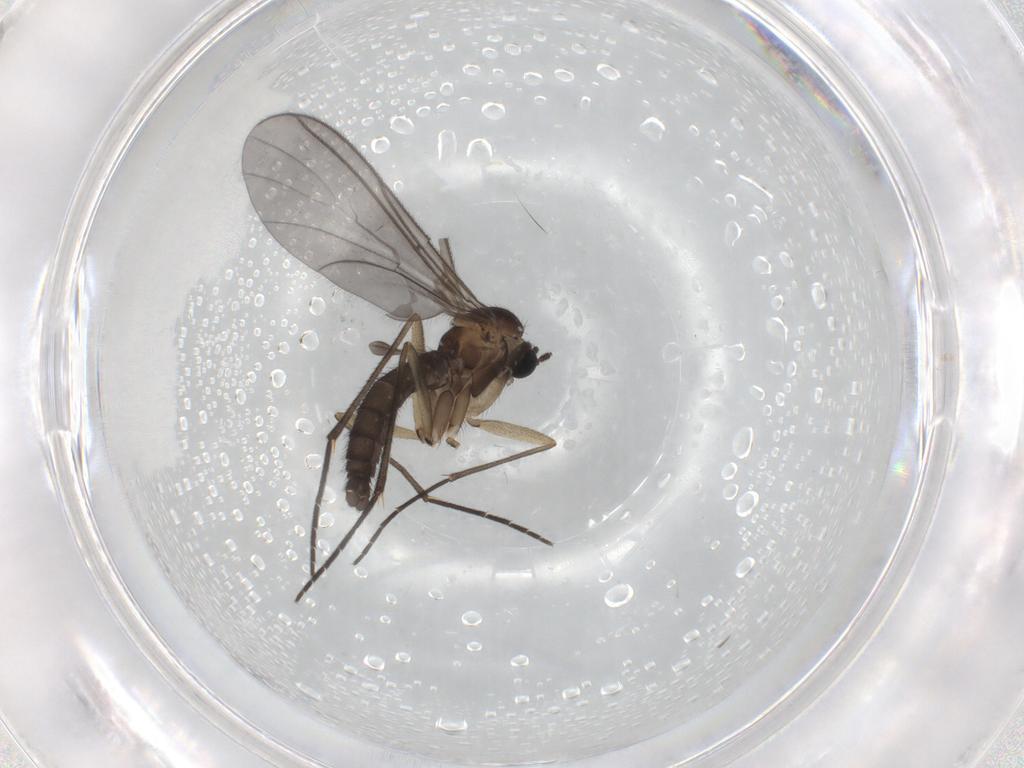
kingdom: Animalia
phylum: Arthropoda
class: Insecta
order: Diptera
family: Sciaridae
